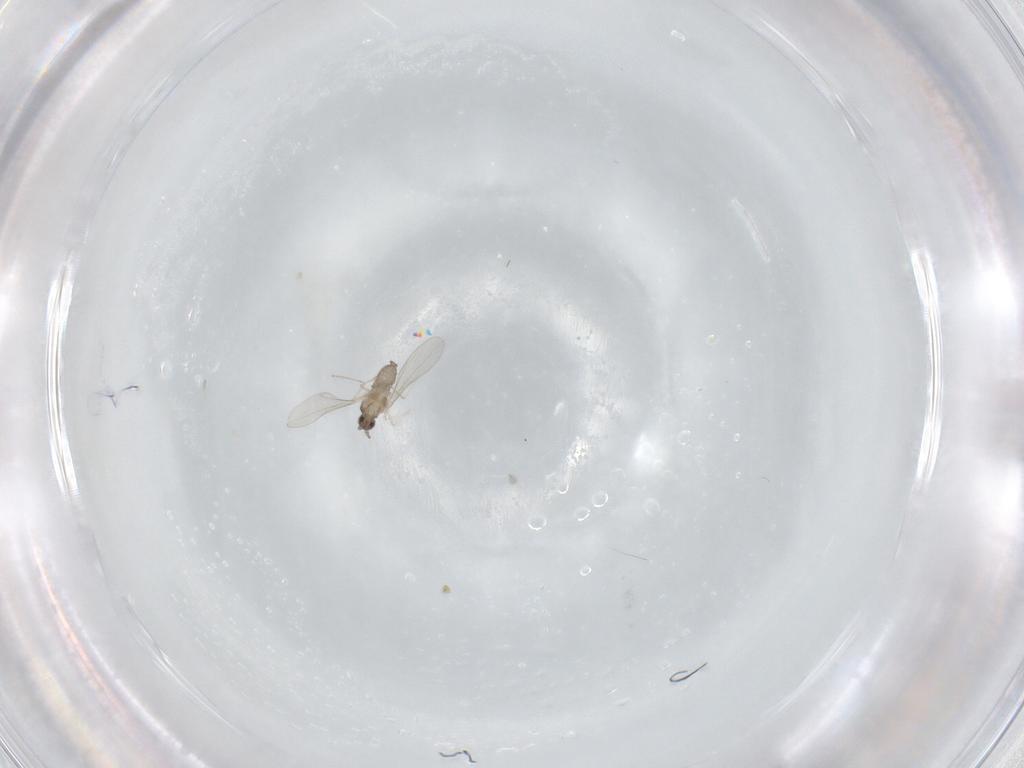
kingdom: Animalia
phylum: Arthropoda
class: Insecta
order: Diptera
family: Cecidomyiidae
